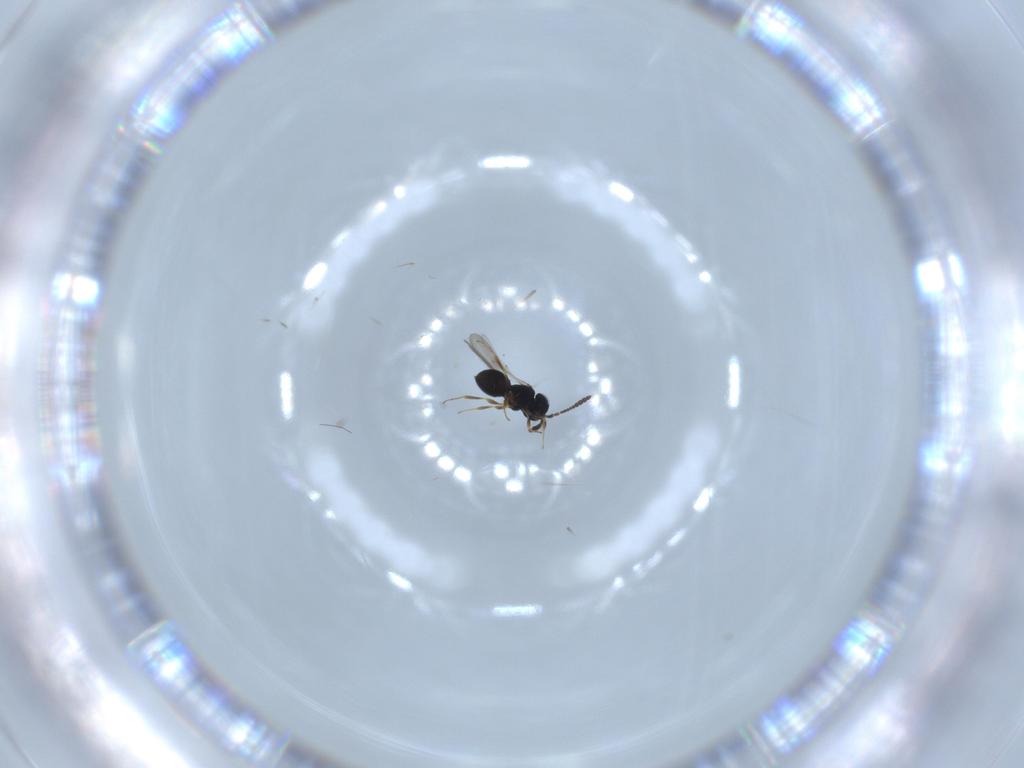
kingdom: Animalia
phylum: Arthropoda
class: Insecta
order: Hymenoptera
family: Scelionidae
